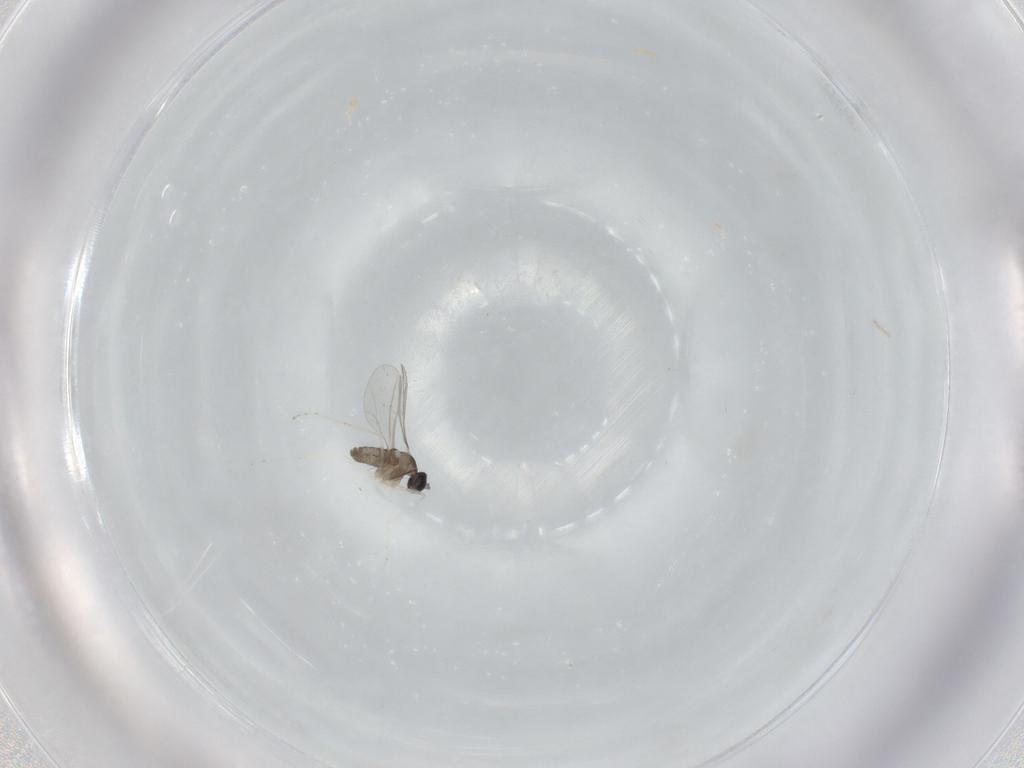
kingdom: Animalia
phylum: Arthropoda
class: Insecta
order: Diptera
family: Cecidomyiidae
